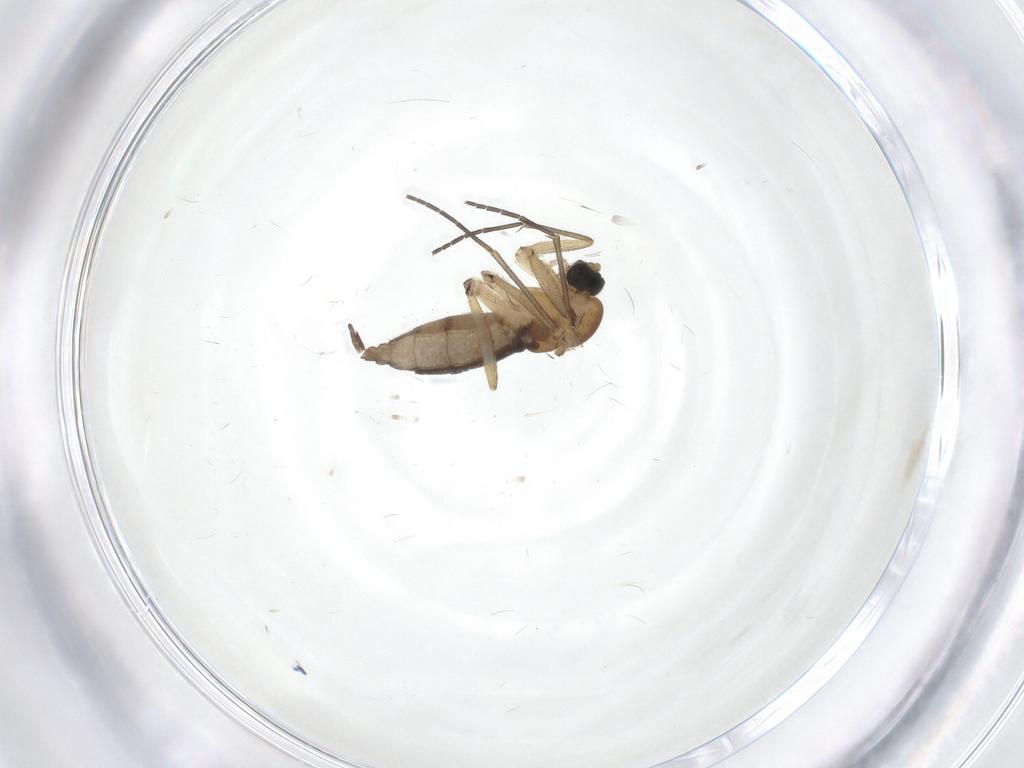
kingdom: Animalia
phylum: Arthropoda
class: Insecta
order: Diptera
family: Sciaridae
